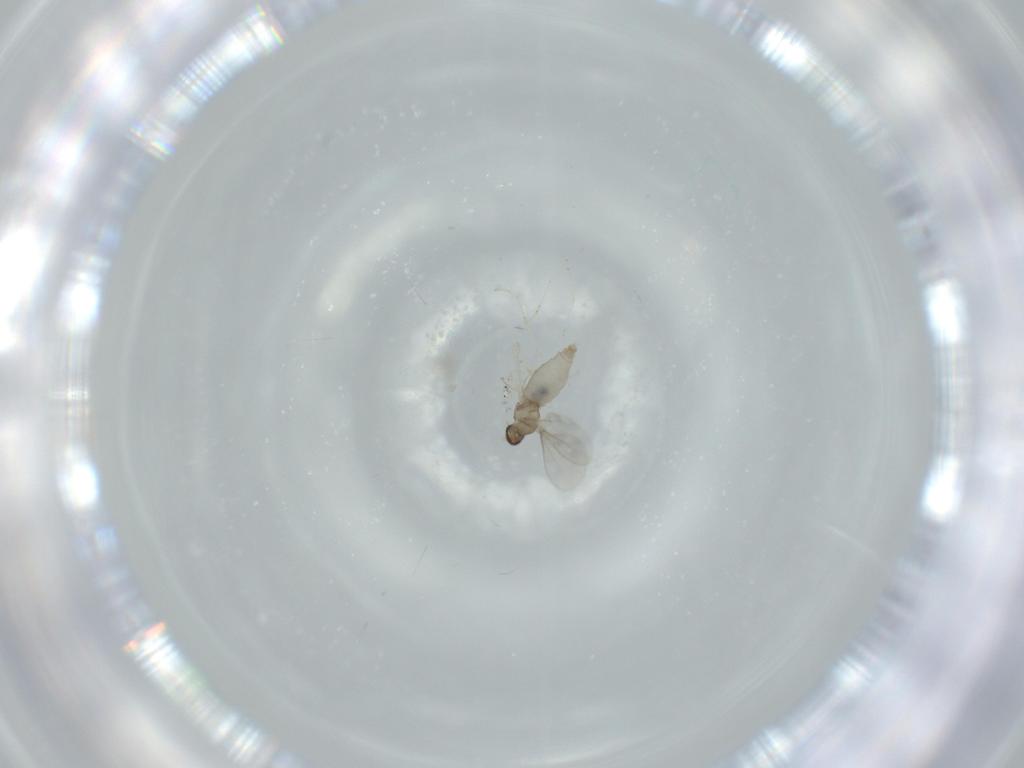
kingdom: Animalia
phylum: Arthropoda
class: Insecta
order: Diptera
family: Cecidomyiidae
